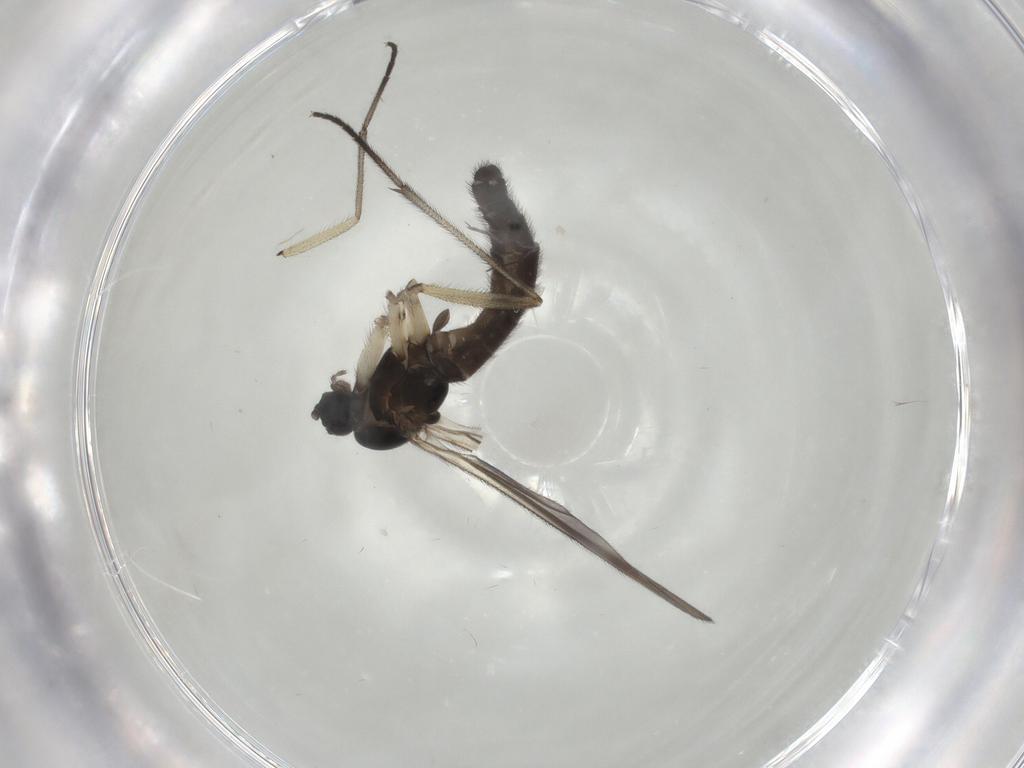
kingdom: Animalia
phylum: Arthropoda
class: Insecta
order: Diptera
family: Sciaridae
